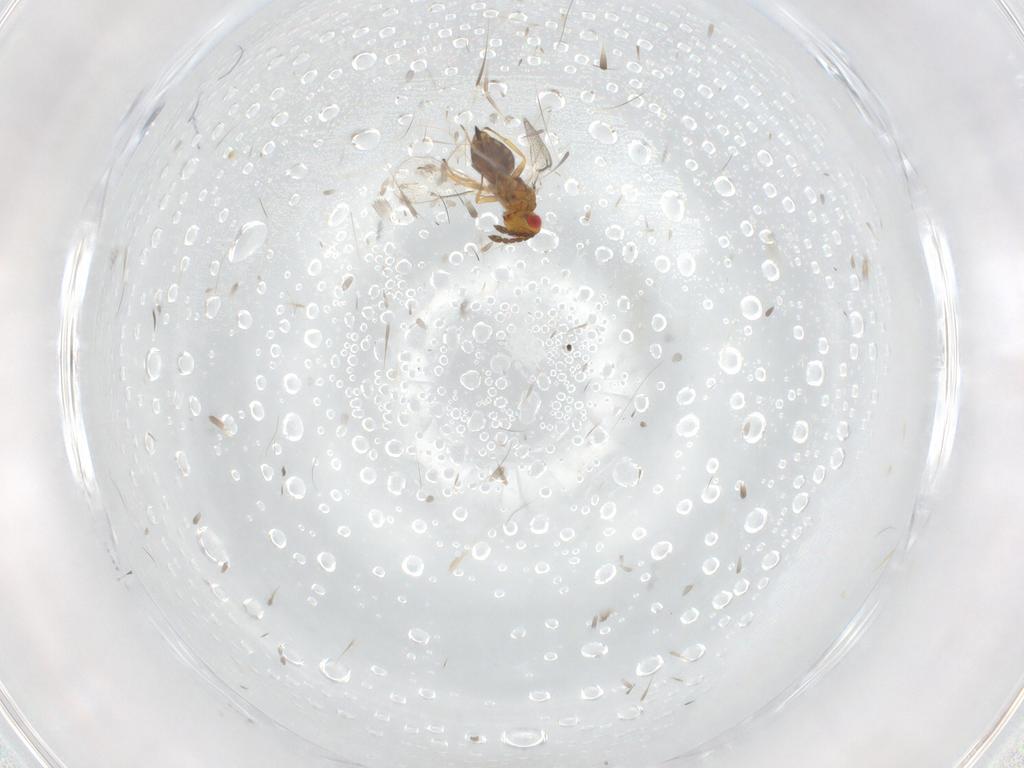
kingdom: Animalia
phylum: Arthropoda
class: Insecta
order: Hymenoptera
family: Eulophidae
